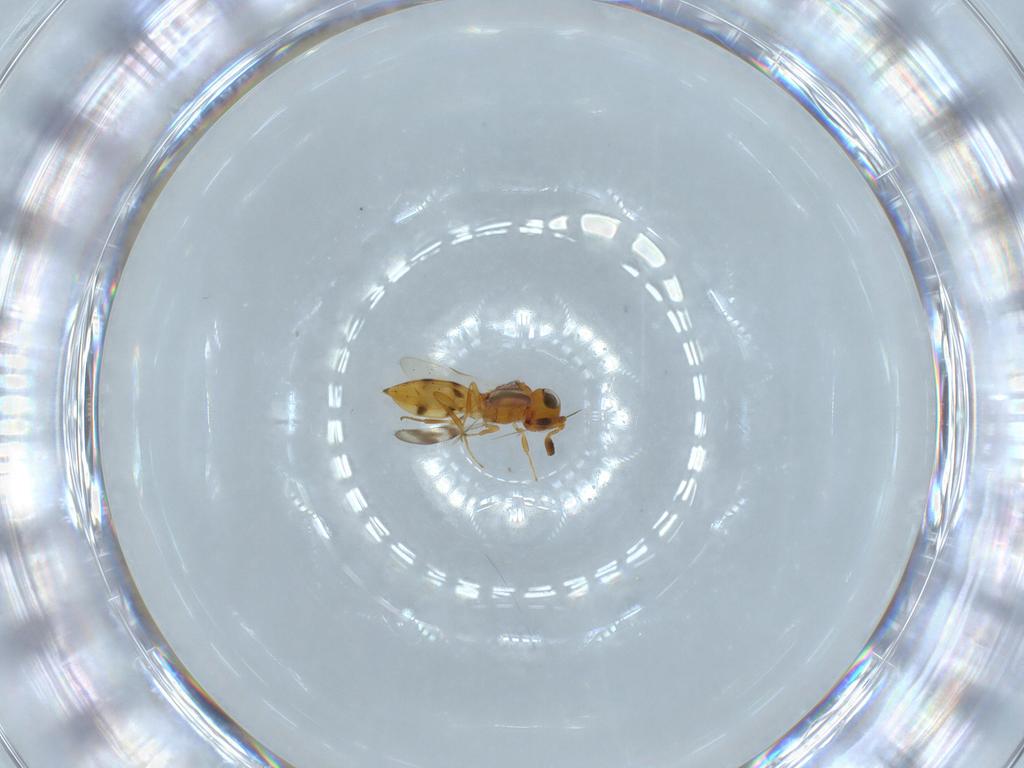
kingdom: Animalia
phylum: Arthropoda
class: Insecta
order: Hymenoptera
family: Scelionidae
